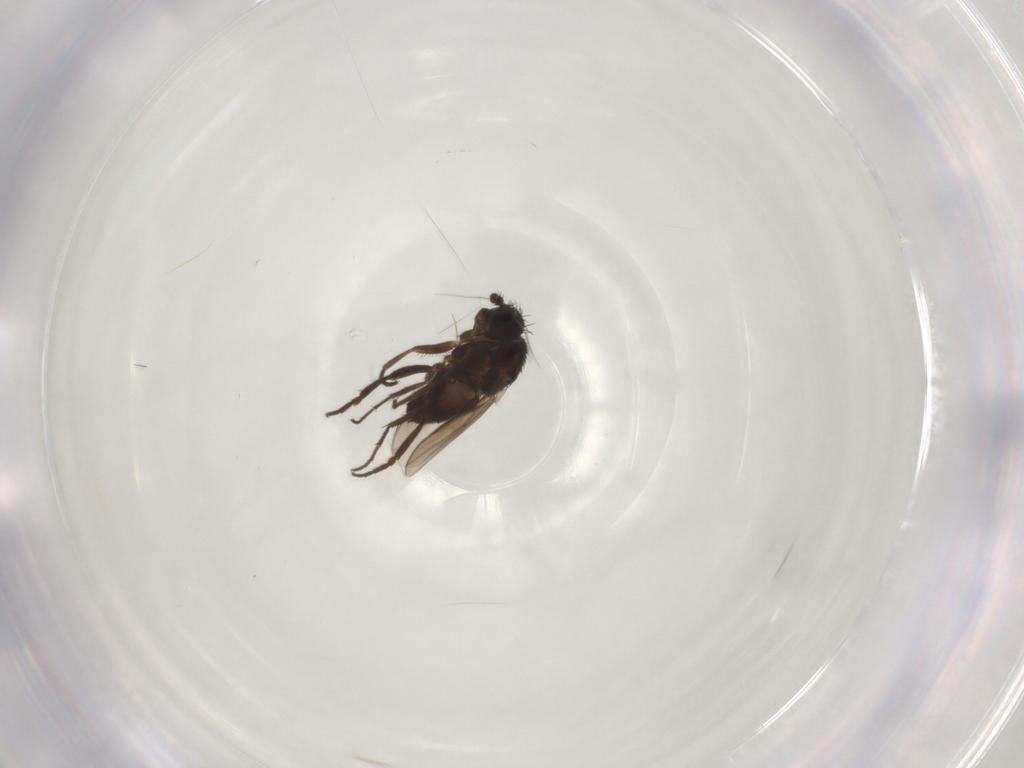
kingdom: Animalia
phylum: Arthropoda
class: Insecta
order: Diptera
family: Sphaeroceridae
